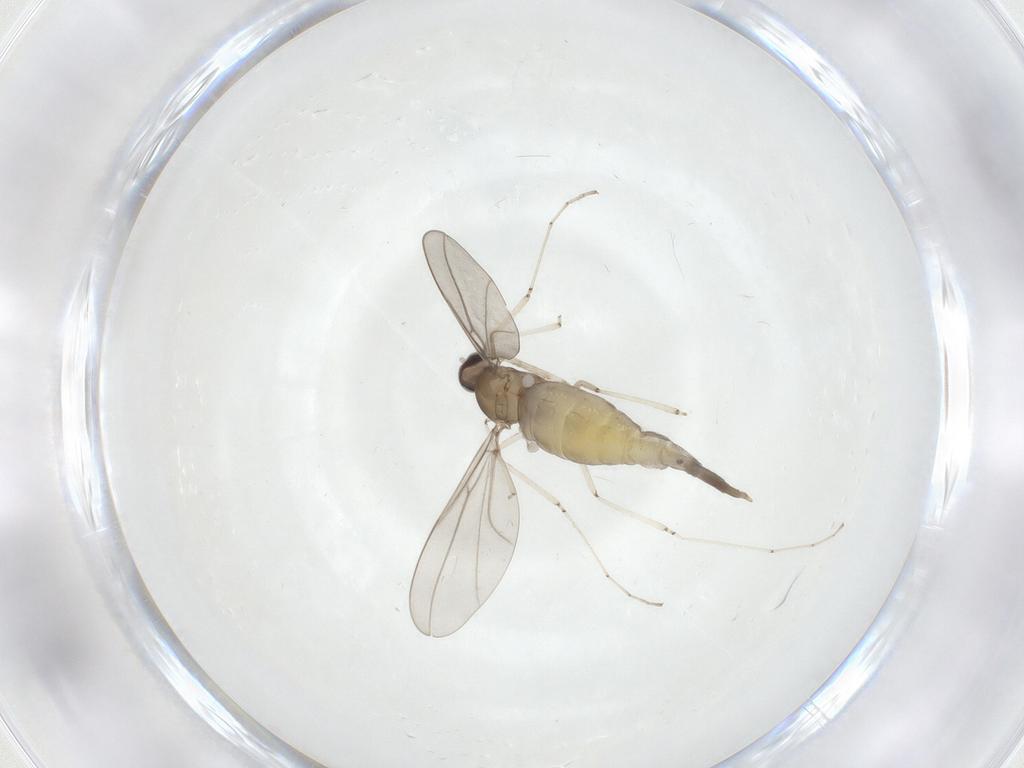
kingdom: Animalia
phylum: Arthropoda
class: Insecta
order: Diptera
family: Cecidomyiidae
